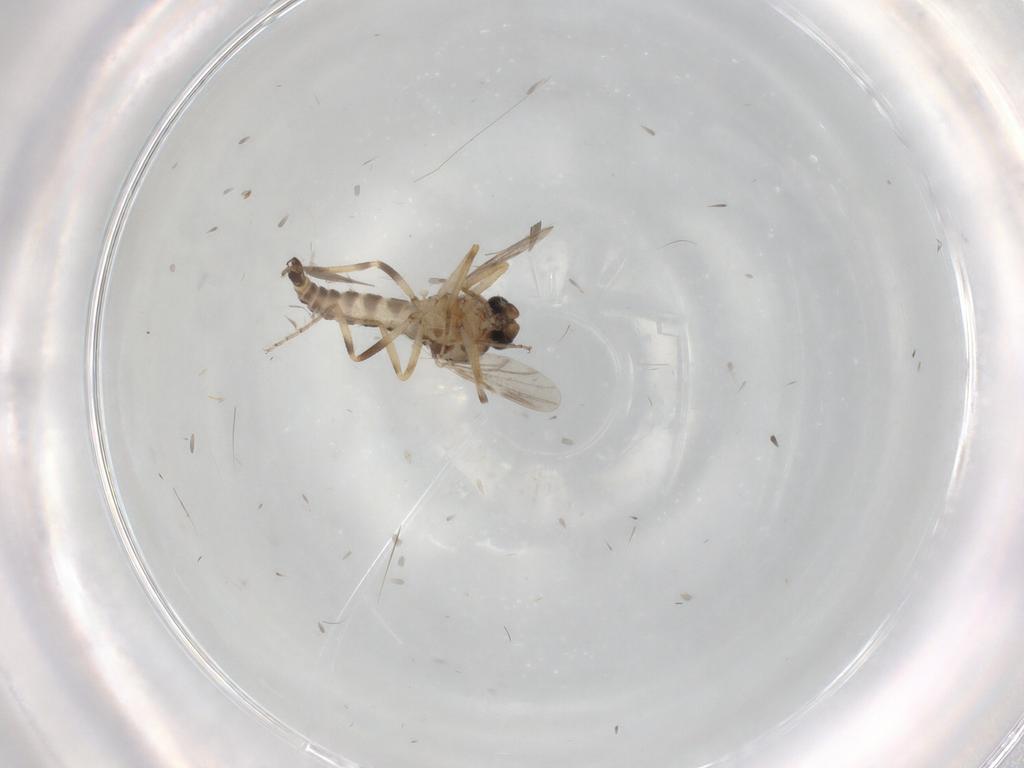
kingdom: Animalia
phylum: Arthropoda
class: Insecta
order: Diptera
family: Ceratopogonidae
